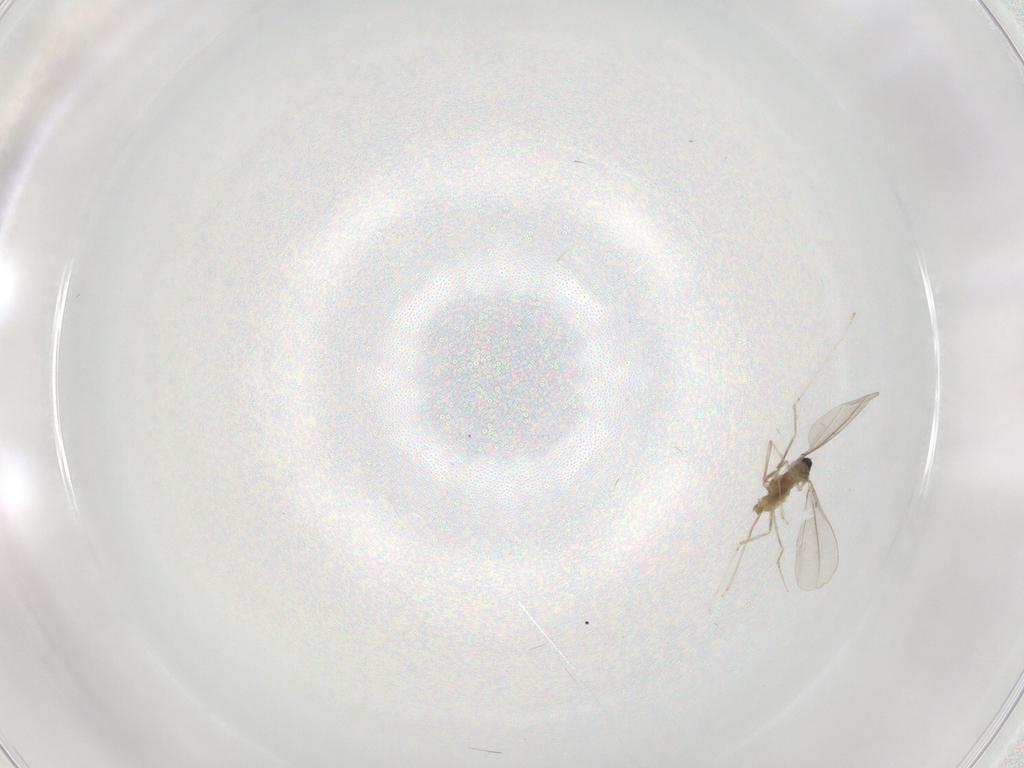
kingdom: Animalia
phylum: Arthropoda
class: Insecta
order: Diptera
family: Cecidomyiidae
